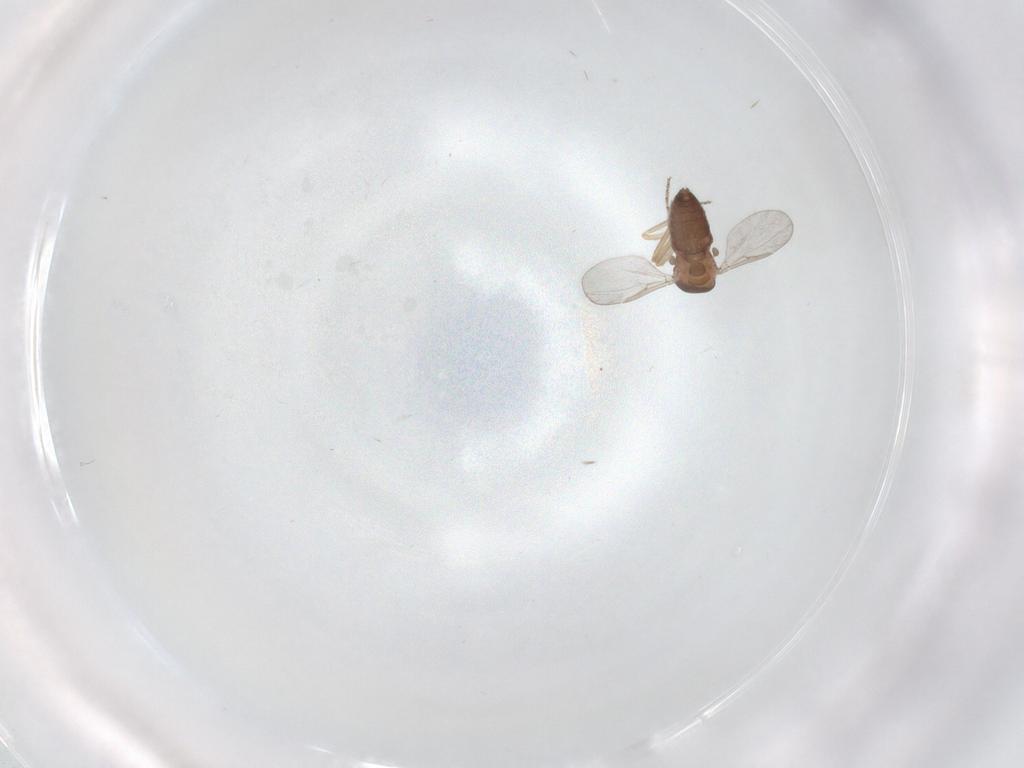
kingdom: Animalia
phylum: Arthropoda
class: Insecta
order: Diptera
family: Ceratopogonidae
